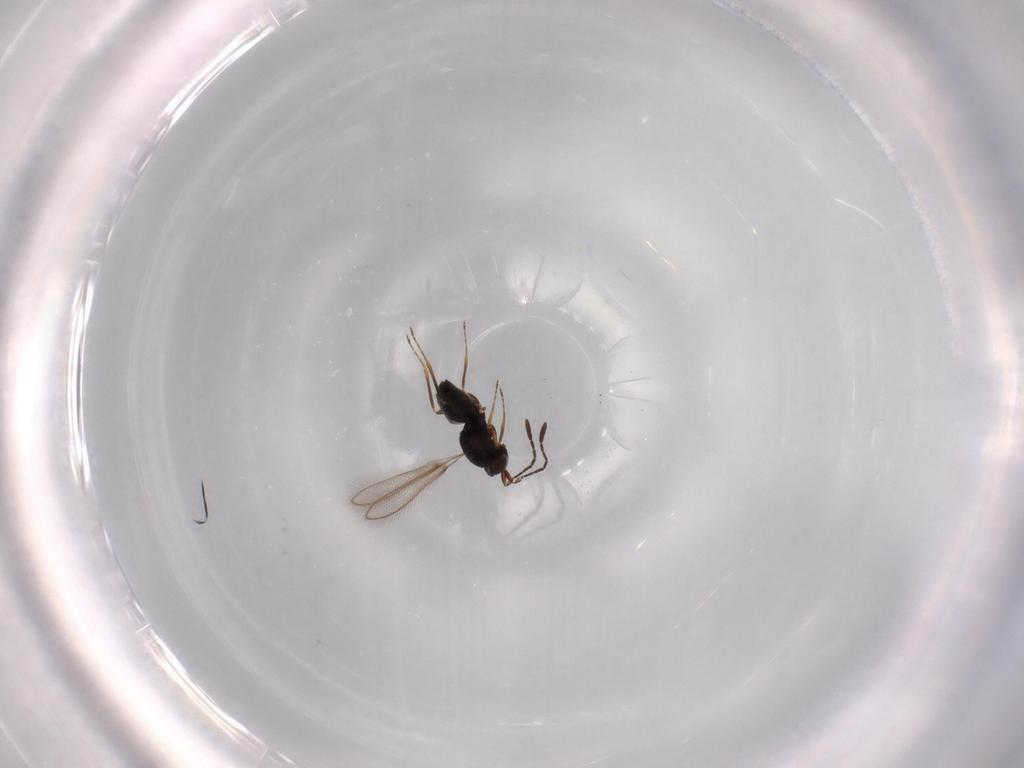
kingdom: Animalia
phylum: Arthropoda
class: Insecta
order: Hymenoptera
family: Mymaridae
